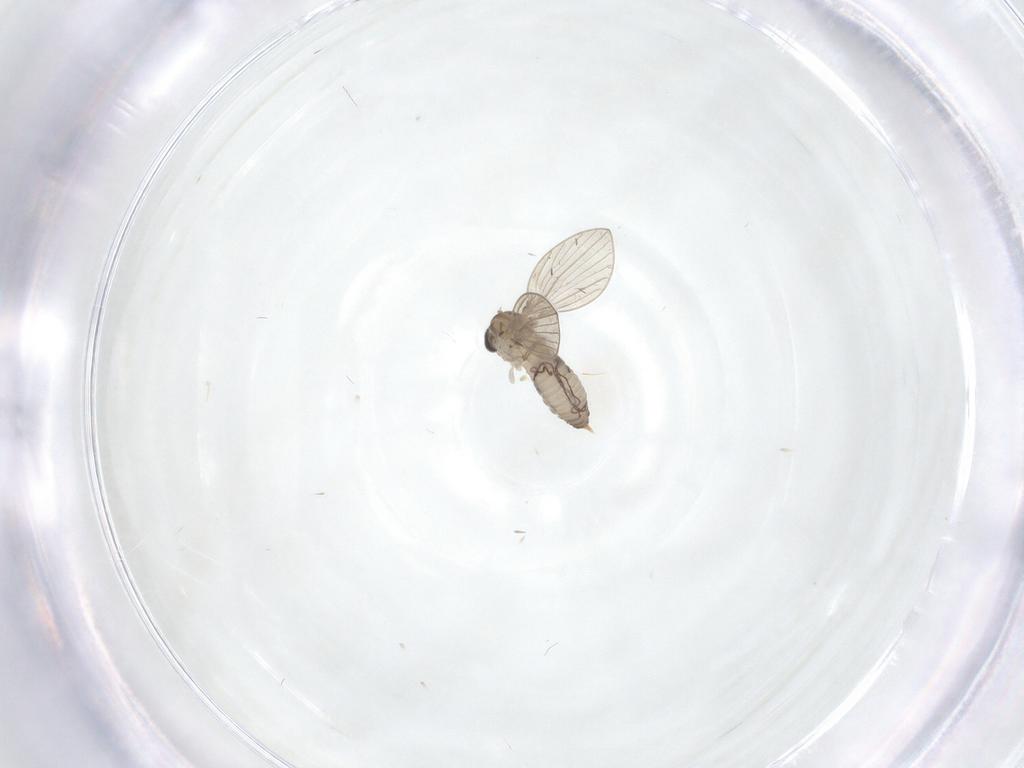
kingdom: Animalia
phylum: Arthropoda
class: Insecta
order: Diptera
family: Psychodidae
